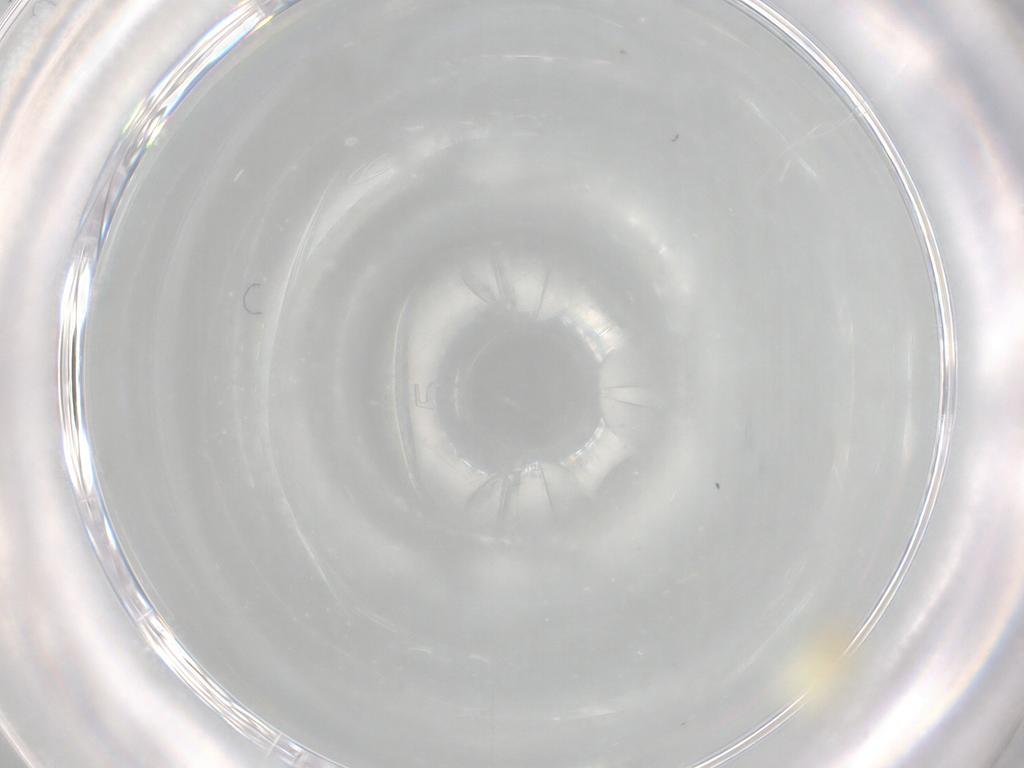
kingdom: Animalia
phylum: Arthropoda
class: Insecta
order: Hemiptera
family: Aleyrodidae
